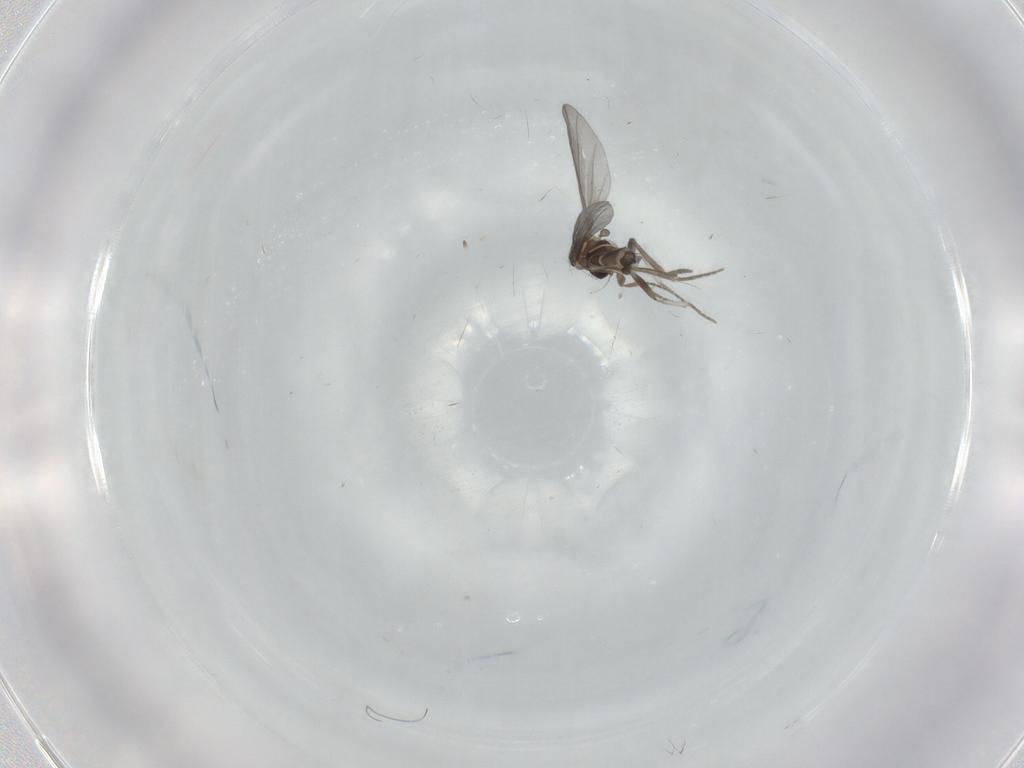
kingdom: Animalia
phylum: Arthropoda
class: Insecta
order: Diptera
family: Phoridae
